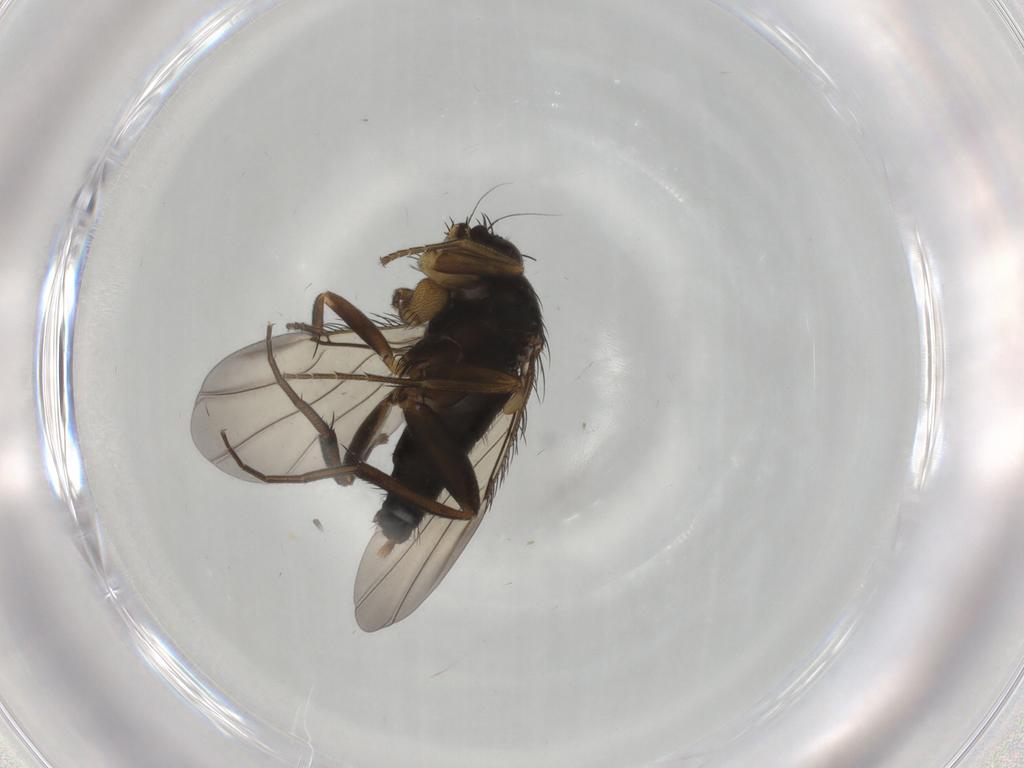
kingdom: Animalia
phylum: Arthropoda
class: Insecta
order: Diptera
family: Phoridae
